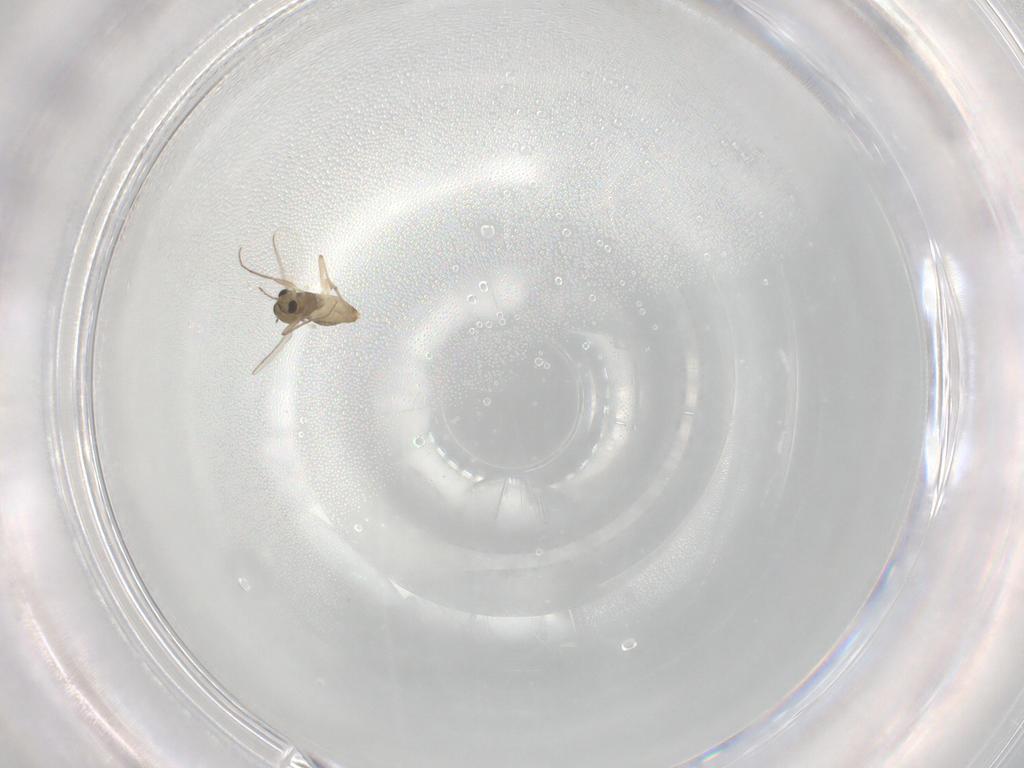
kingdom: Animalia
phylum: Arthropoda
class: Insecta
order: Diptera
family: Chironomidae
